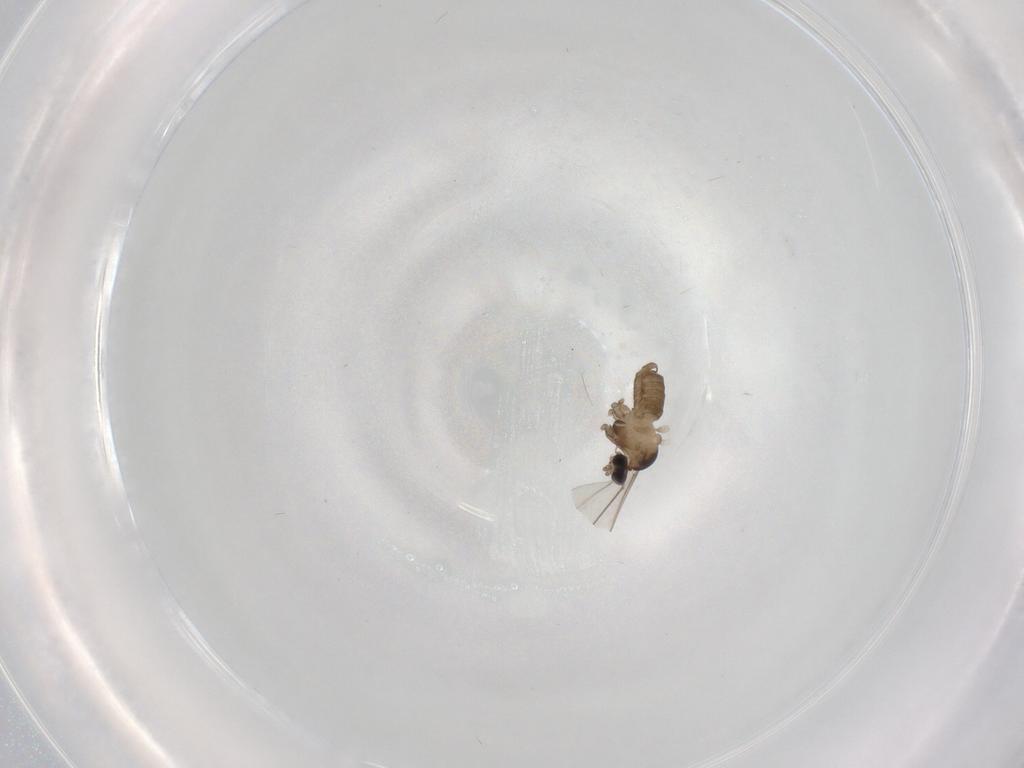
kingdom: Animalia
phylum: Arthropoda
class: Insecta
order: Diptera
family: Cecidomyiidae
